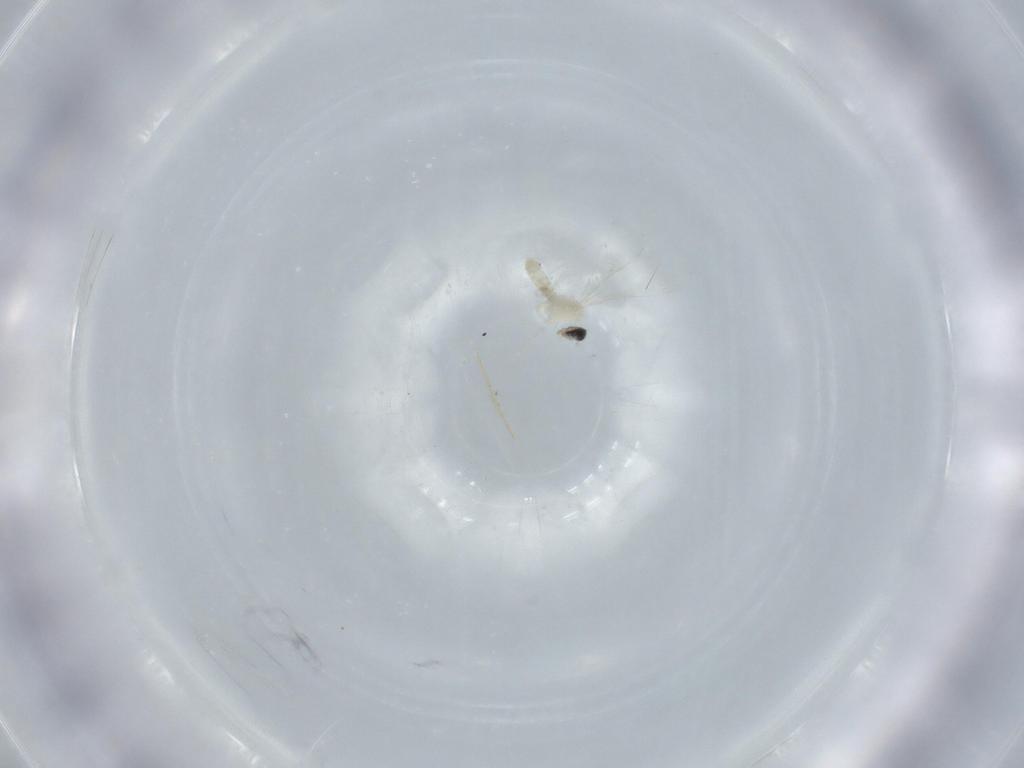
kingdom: Animalia
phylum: Arthropoda
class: Insecta
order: Diptera
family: Cecidomyiidae
